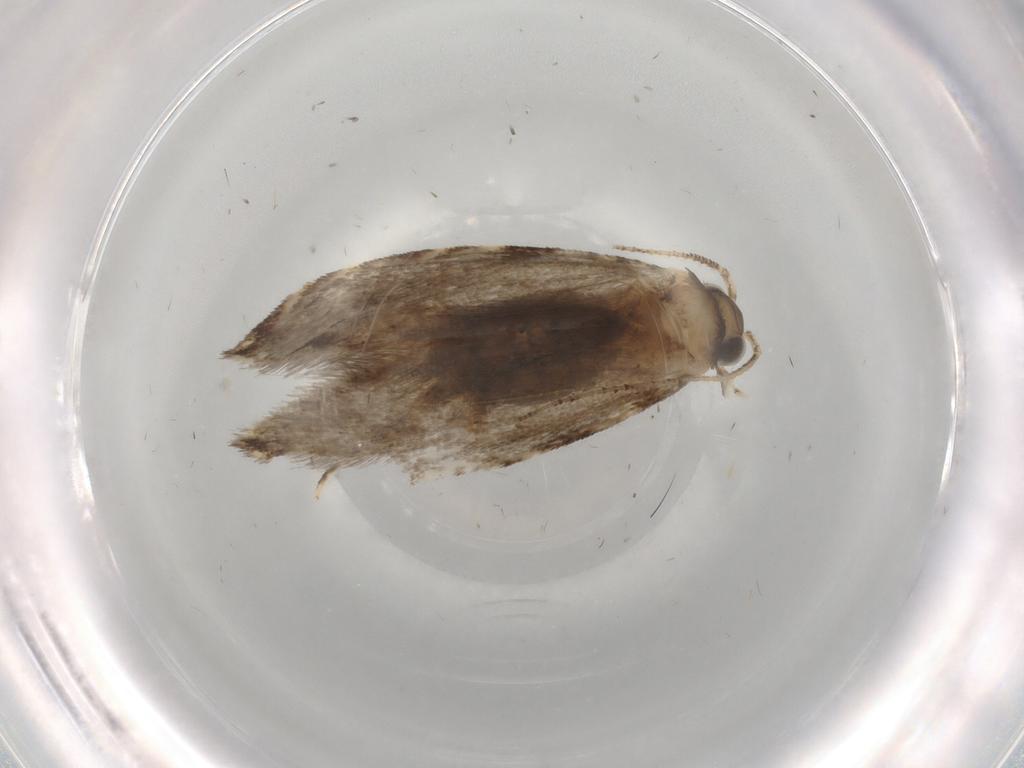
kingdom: Animalia
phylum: Arthropoda
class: Insecta
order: Lepidoptera
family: Tineidae
